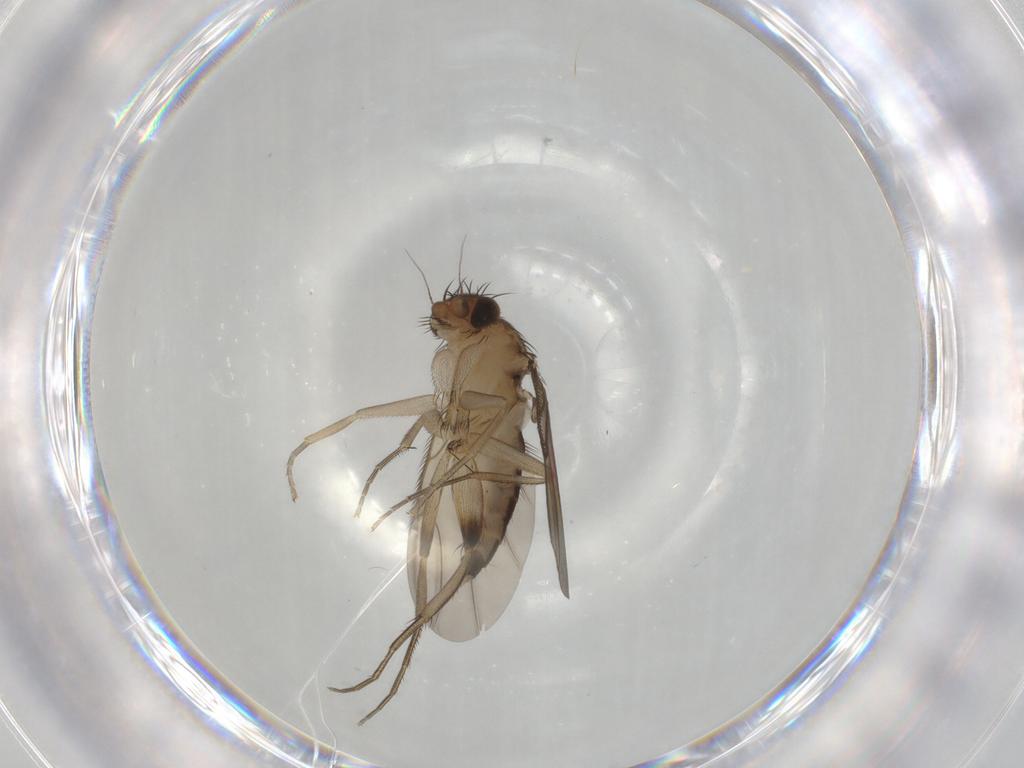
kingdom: Animalia
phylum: Arthropoda
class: Insecta
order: Diptera
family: Phoridae
